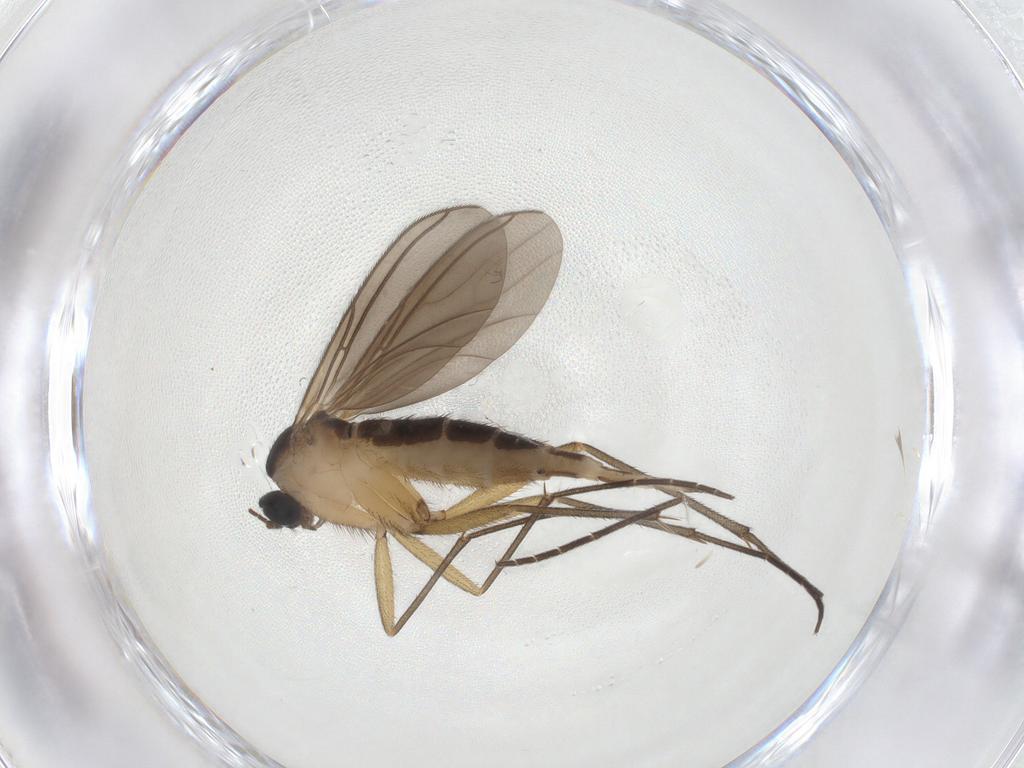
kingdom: Animalia
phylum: Arthropoda
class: Insecta
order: Diptera
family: Sciaridae
